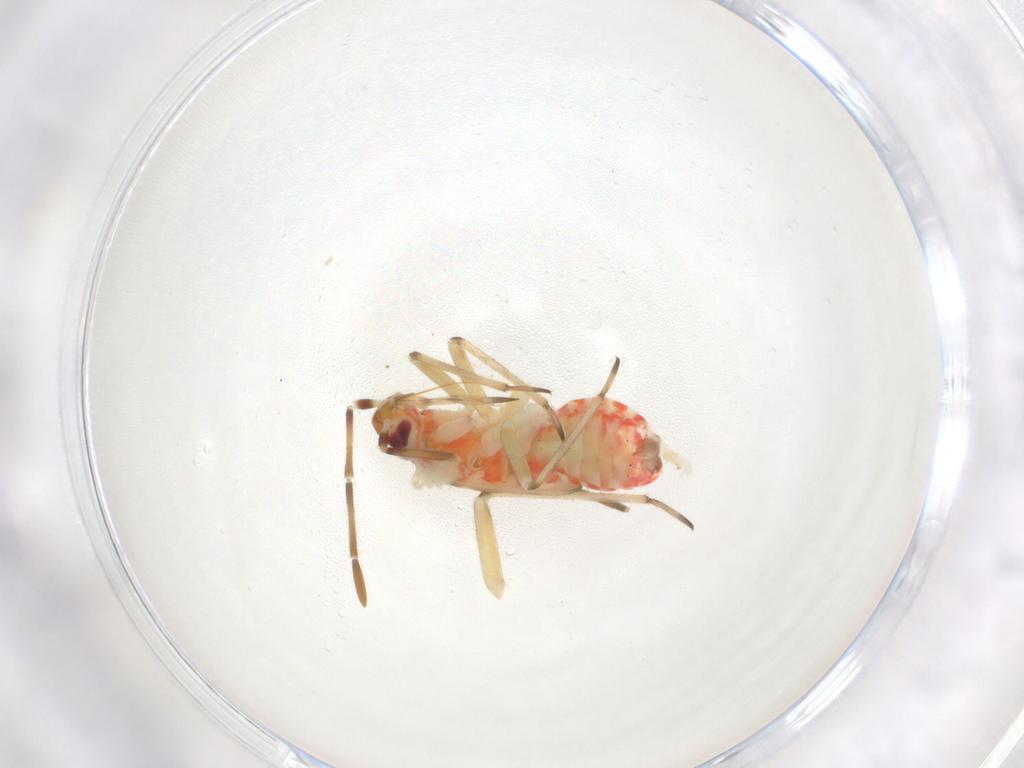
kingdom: Animalia
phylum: Arthropoda
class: Insecta
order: Hemiptera
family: Miridae
